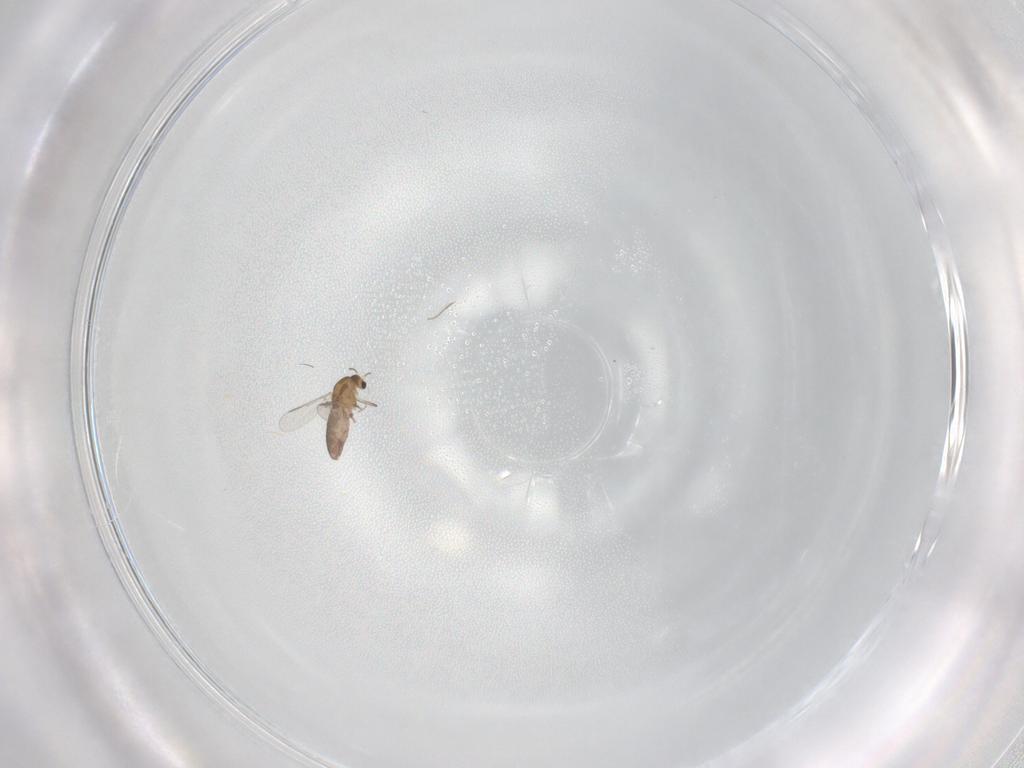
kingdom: Animalia
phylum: Arthropoda
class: Insecta
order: Diptera
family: Chironomidae
